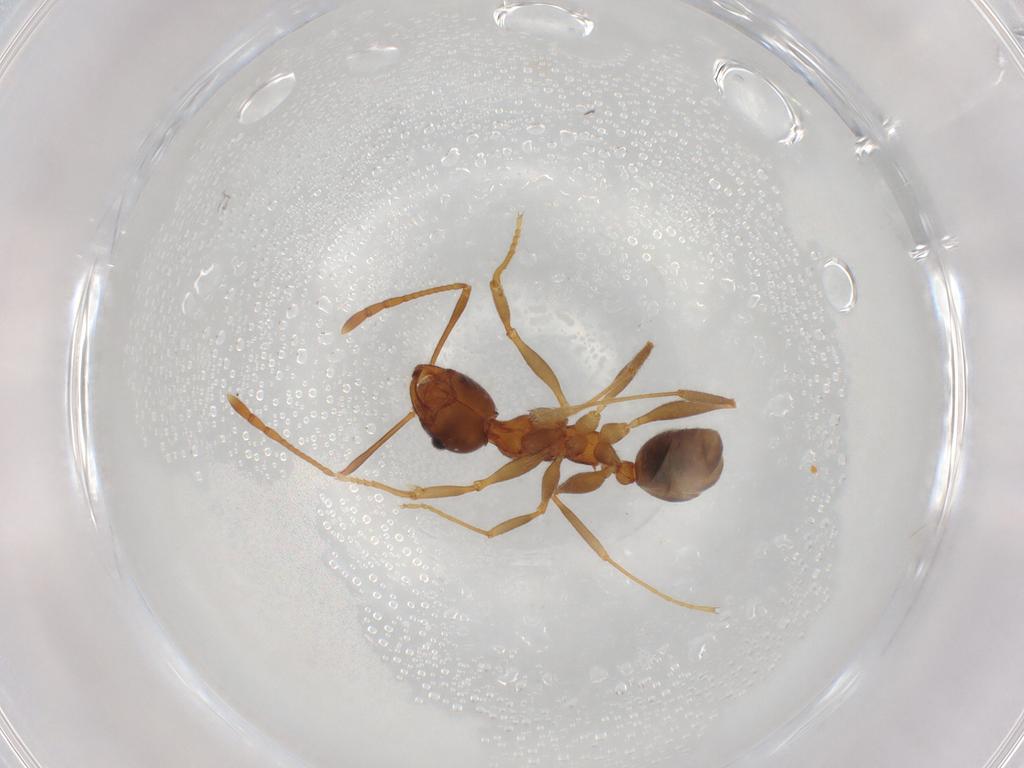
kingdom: Animalia
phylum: Arthropoda
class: Insecta
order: Hymenoptera
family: Formicidae
